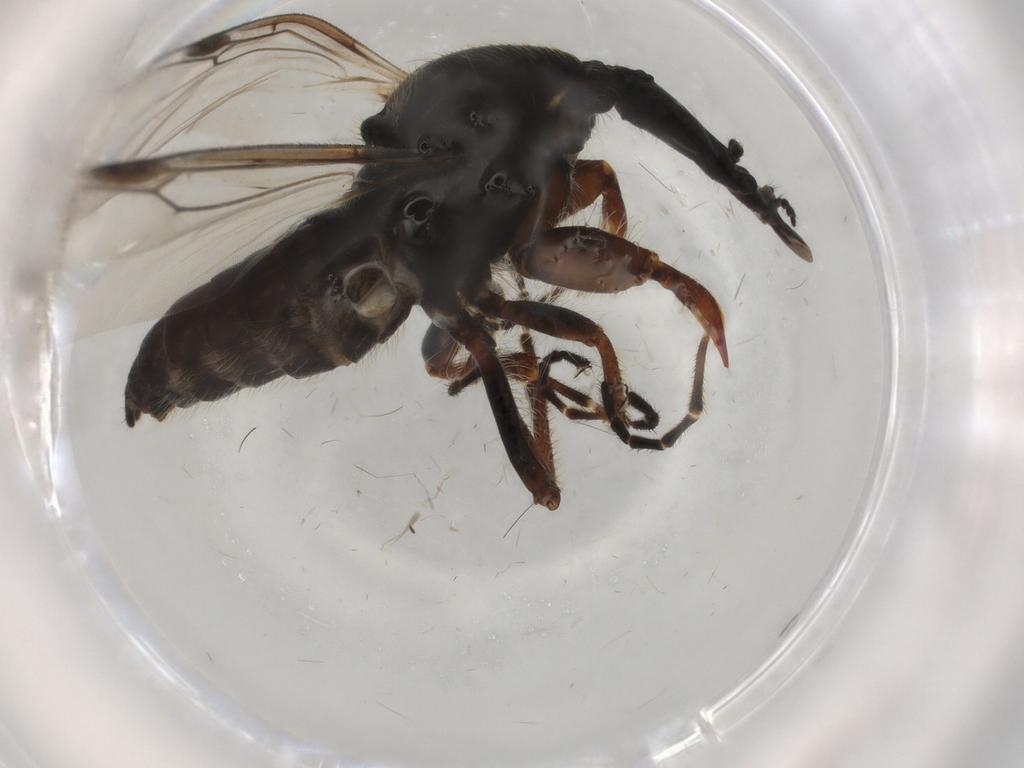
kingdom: Animalia
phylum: Arthropoda
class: Insecta
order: Diptera
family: Bibionidae
